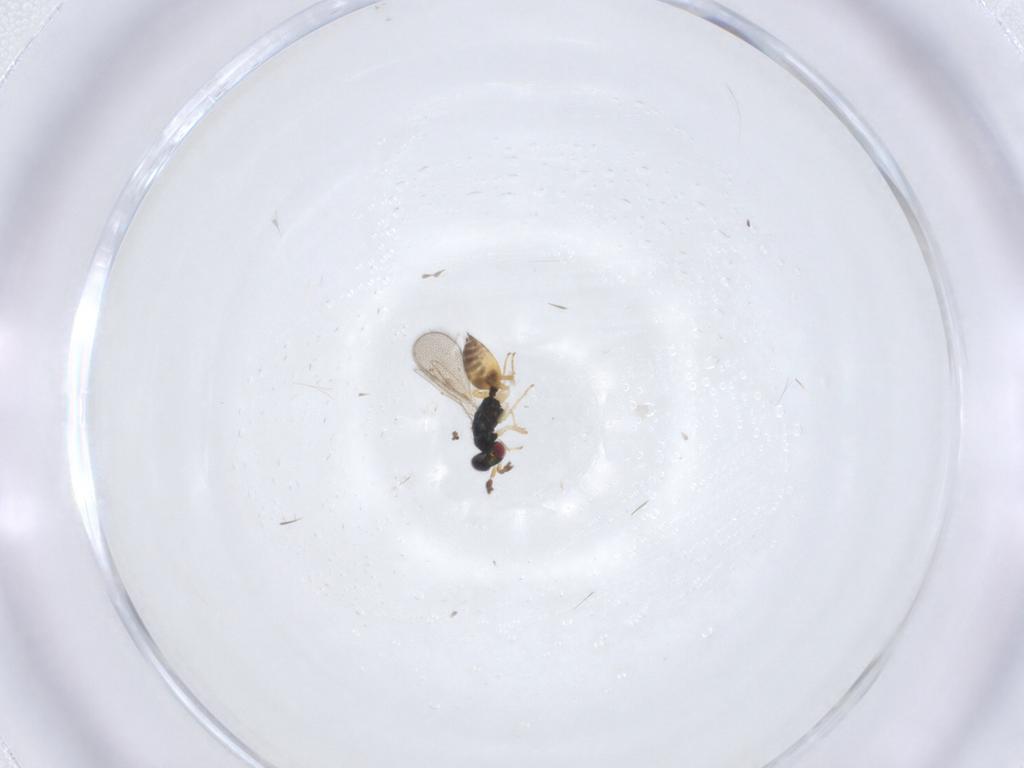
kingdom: Animalia
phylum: Arthropoda
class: Insecta
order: Hymenoptera
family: Eulophidae
